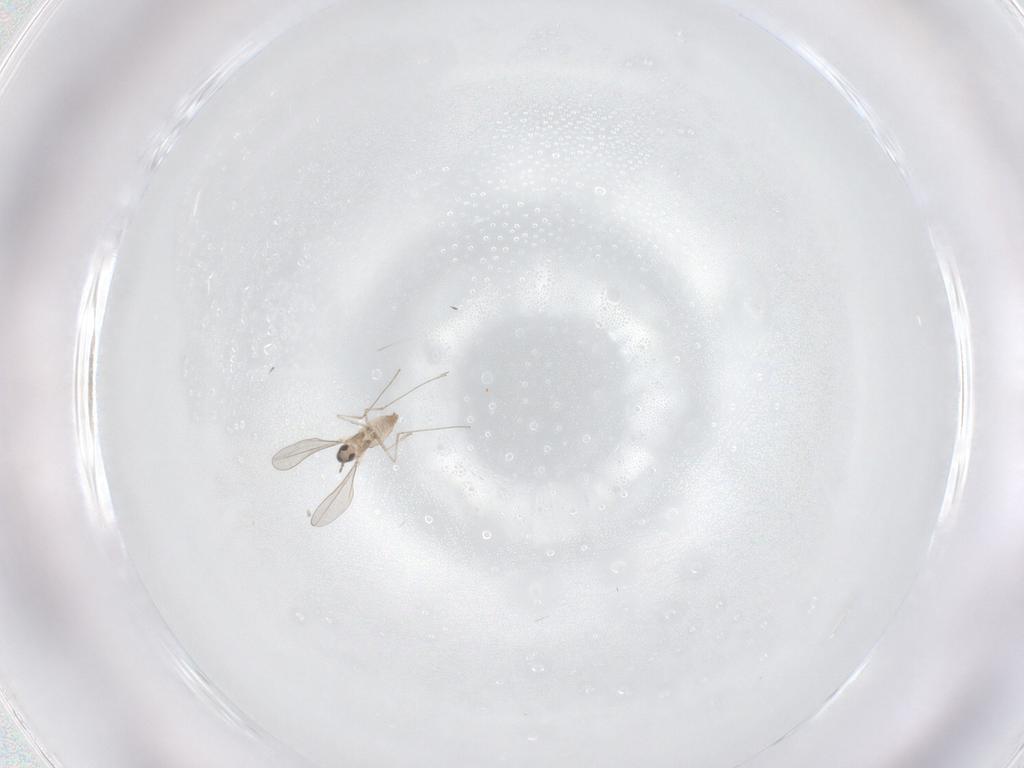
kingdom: Animalia
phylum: Arthropoda
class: Insecta
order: Diptera
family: Cecidomyiidae
